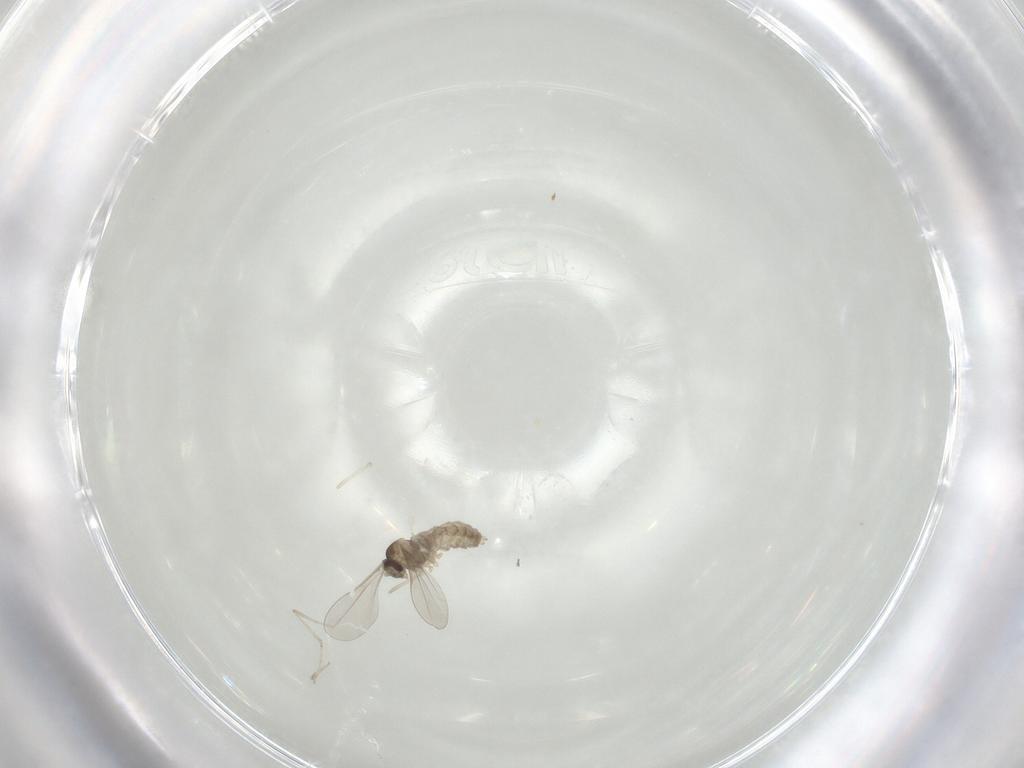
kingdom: Animalia
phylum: Arthropoda
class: Insecta
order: Diptera
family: Cecidomyiidae
